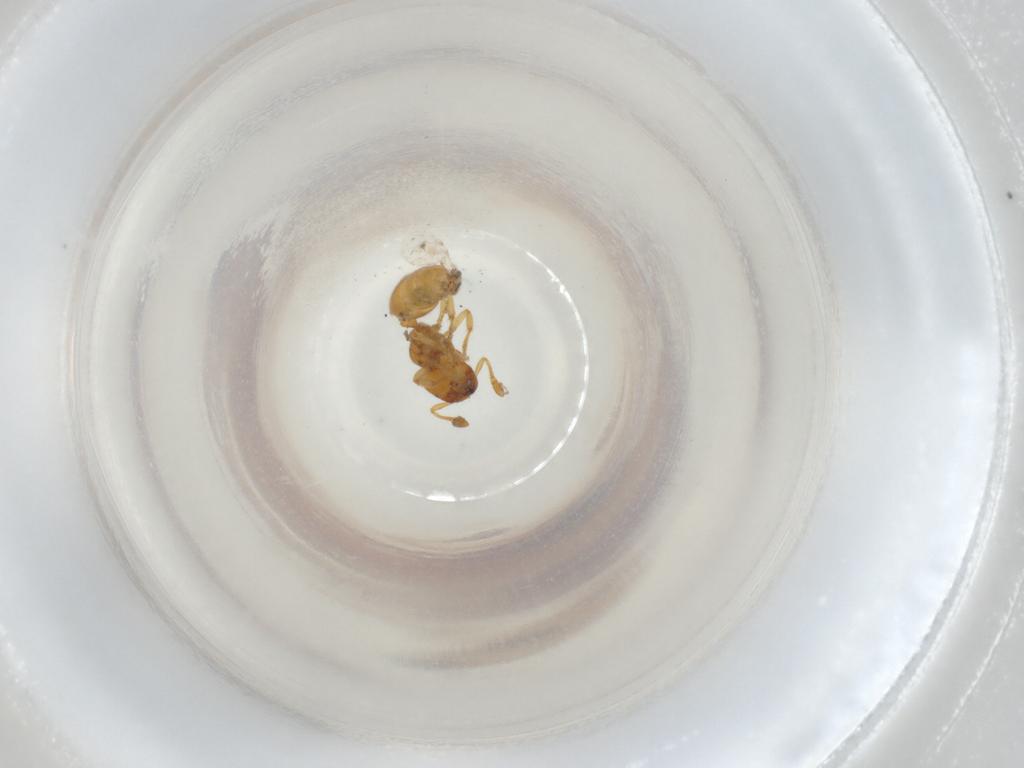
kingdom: Animalia
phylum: Arthropoda
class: Insecta
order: Hymenoptera
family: Formicidae
